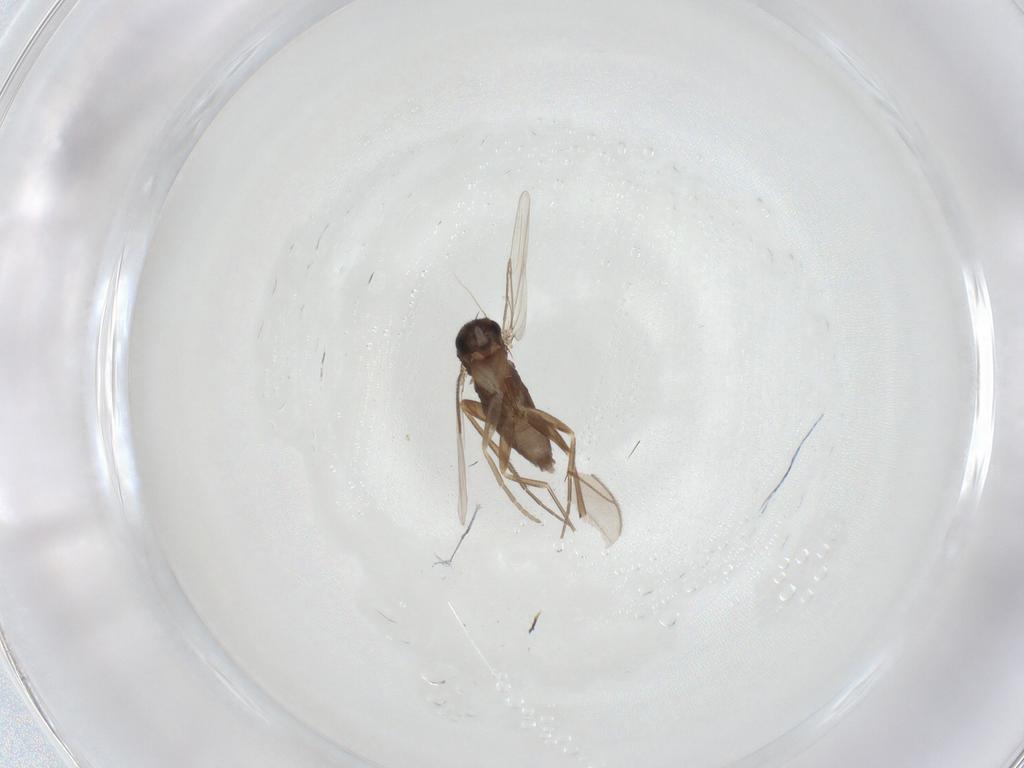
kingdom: Animalia
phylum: Arthropoda
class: Insecta
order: Diptera
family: Phoridae
